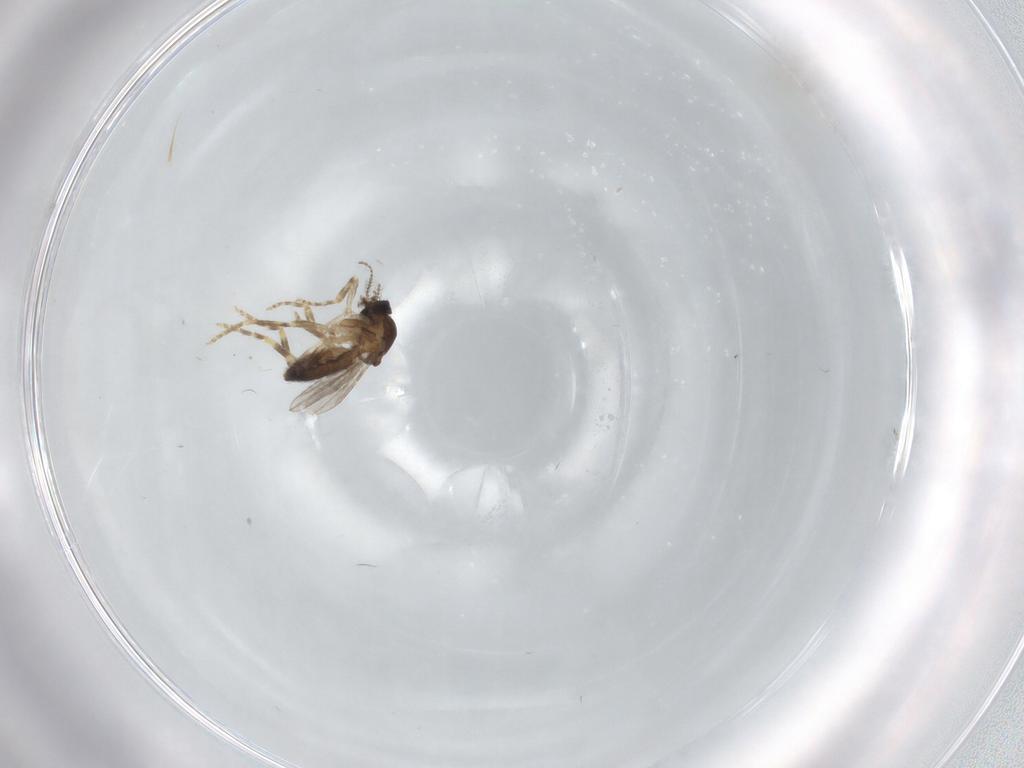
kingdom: Animalia
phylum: Arthropoda
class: Insecta
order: Diptera
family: Ceratopogonidae
